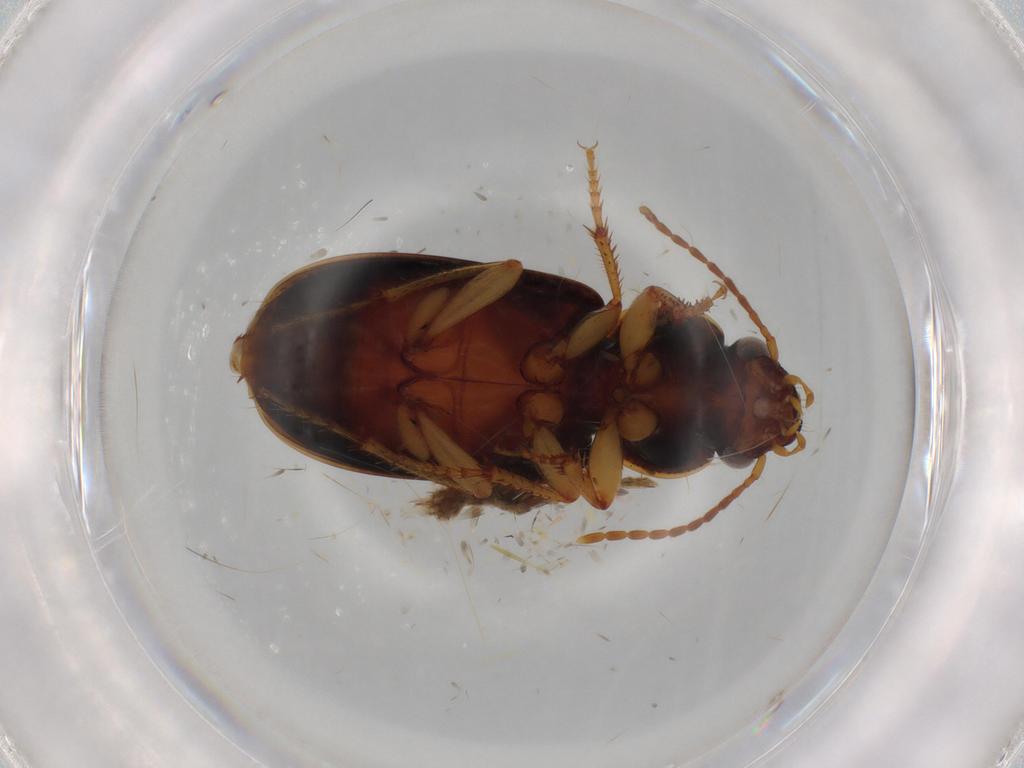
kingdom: Animalia
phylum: Arthropoda
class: Insecta
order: Coleoptera
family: Carabidae
